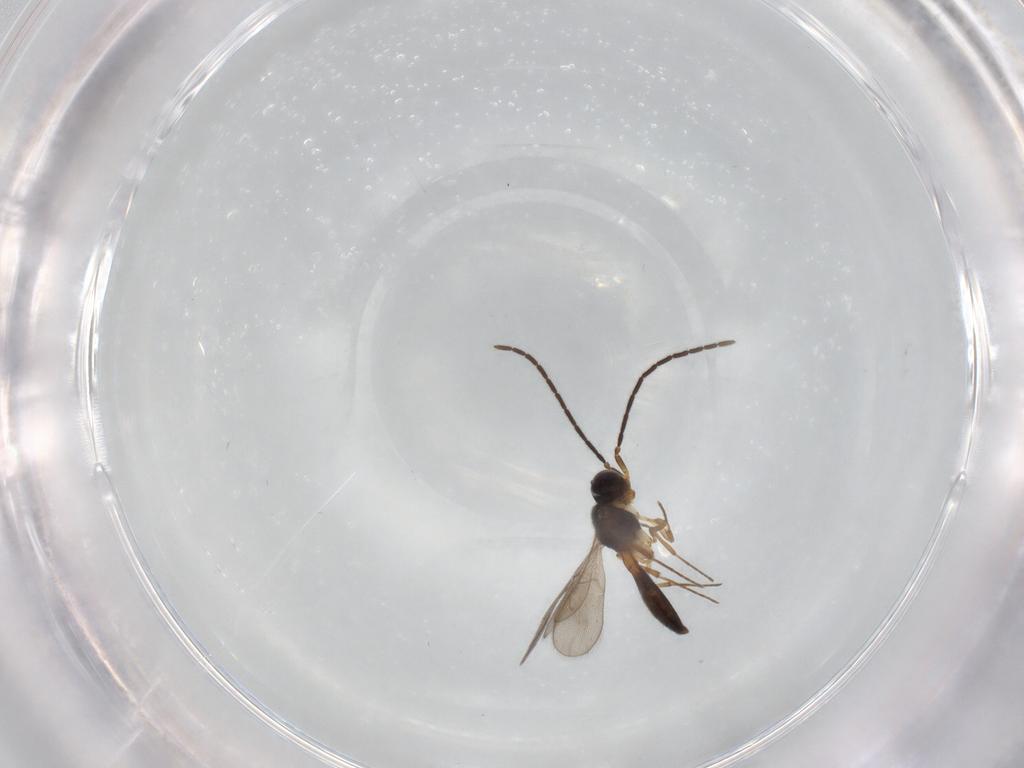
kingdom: Animalia
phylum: Arthropoda
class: Insecta
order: Hymenoptera
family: Scelionidae
